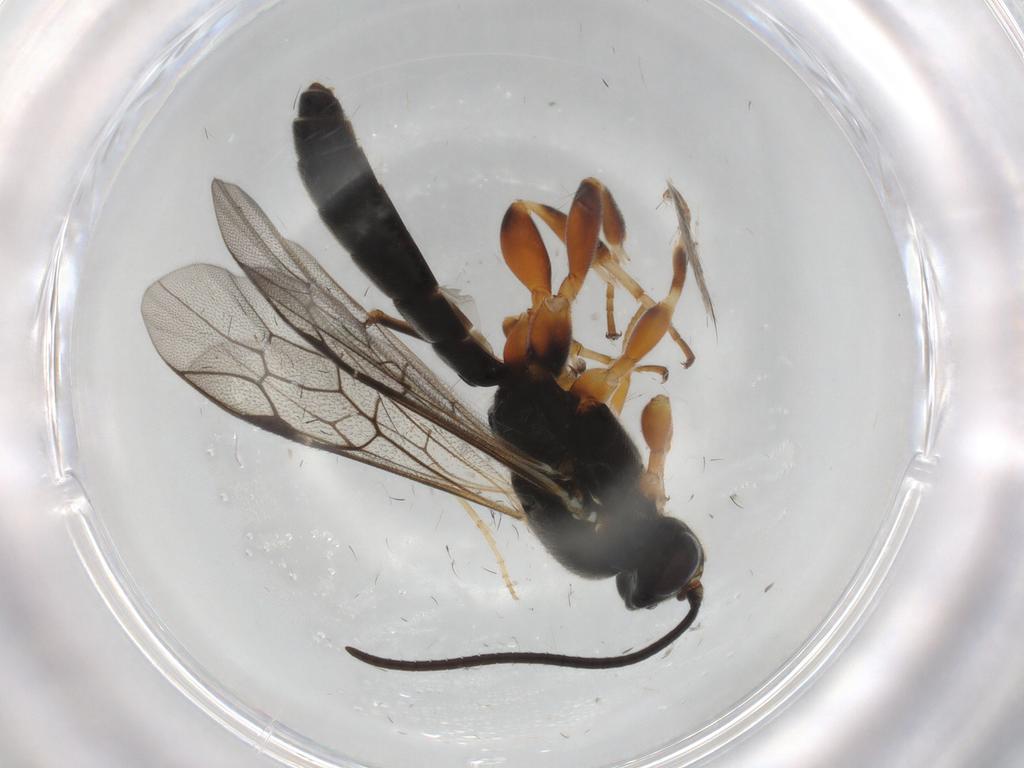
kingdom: Animalia
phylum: Arthropoda
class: Insecta
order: Hymenoptera
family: Ichneumonidae
